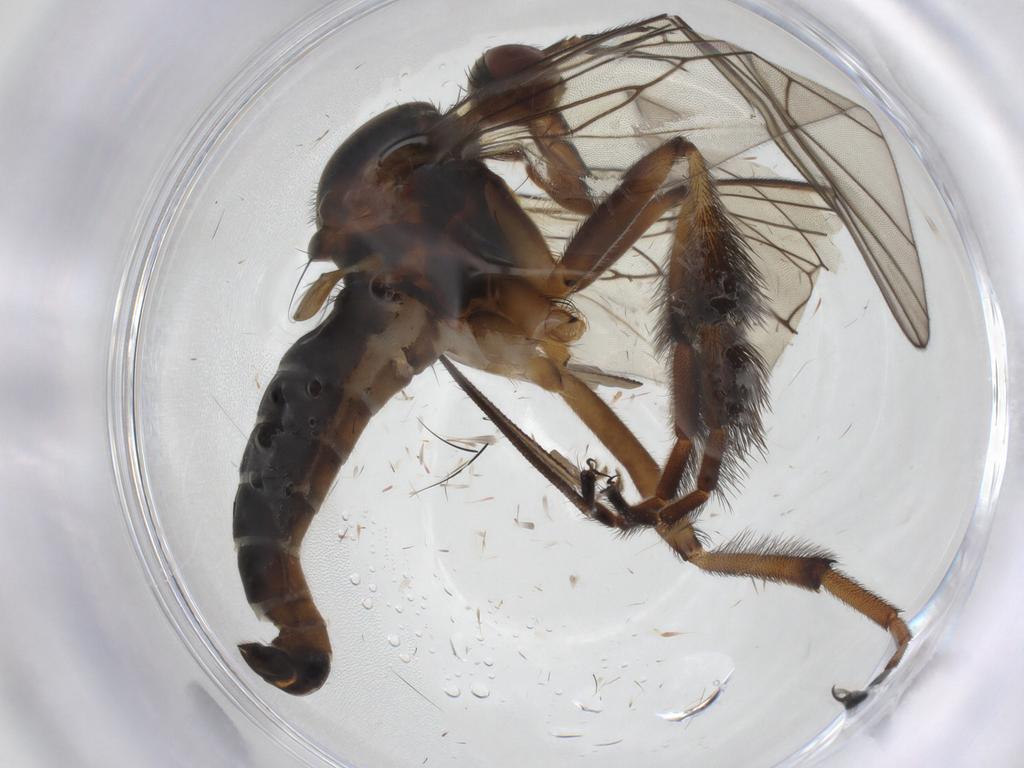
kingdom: Animalia
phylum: Arthropoda
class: Insecta
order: Diptera
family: Empididae
